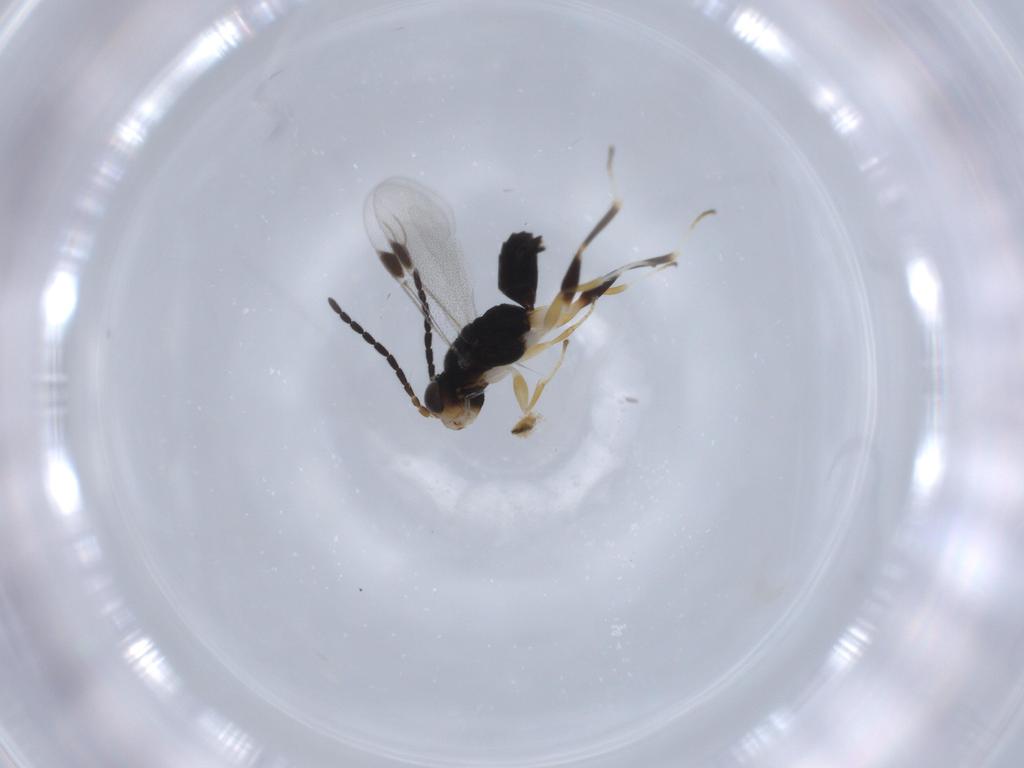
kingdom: Animalia
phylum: Arthropoda
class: Insecta
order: Hymenoptera
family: Dryinidae
